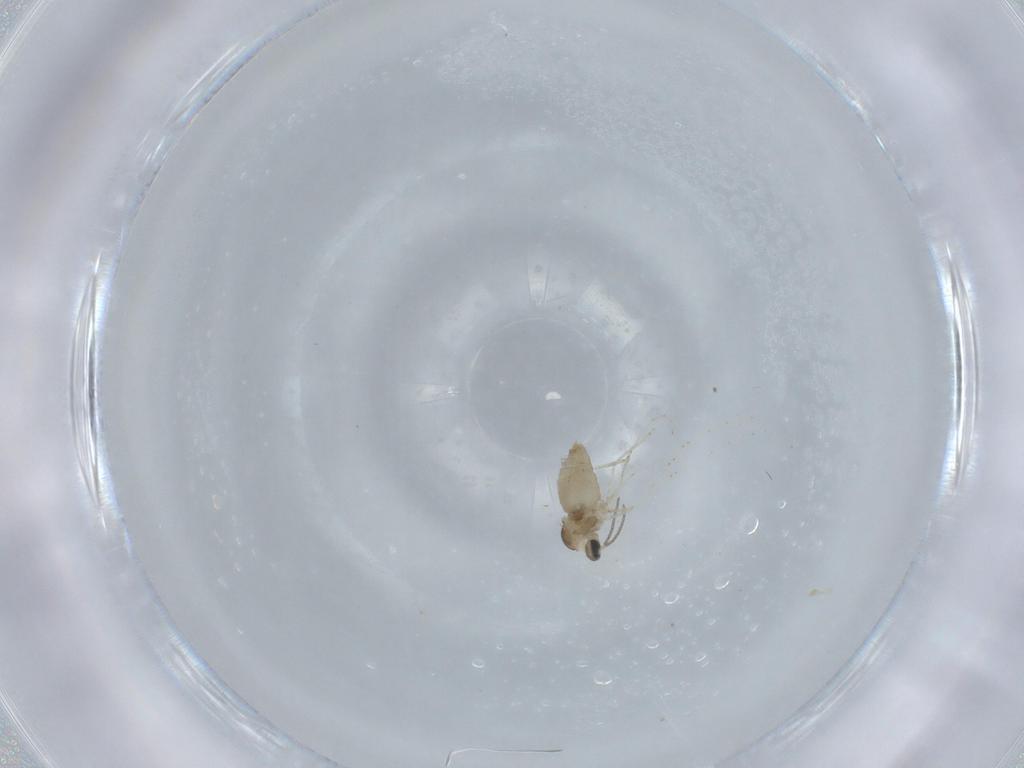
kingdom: Animalia
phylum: Arthropoda
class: Insecta
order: Diptera
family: Cecidomyiidae
